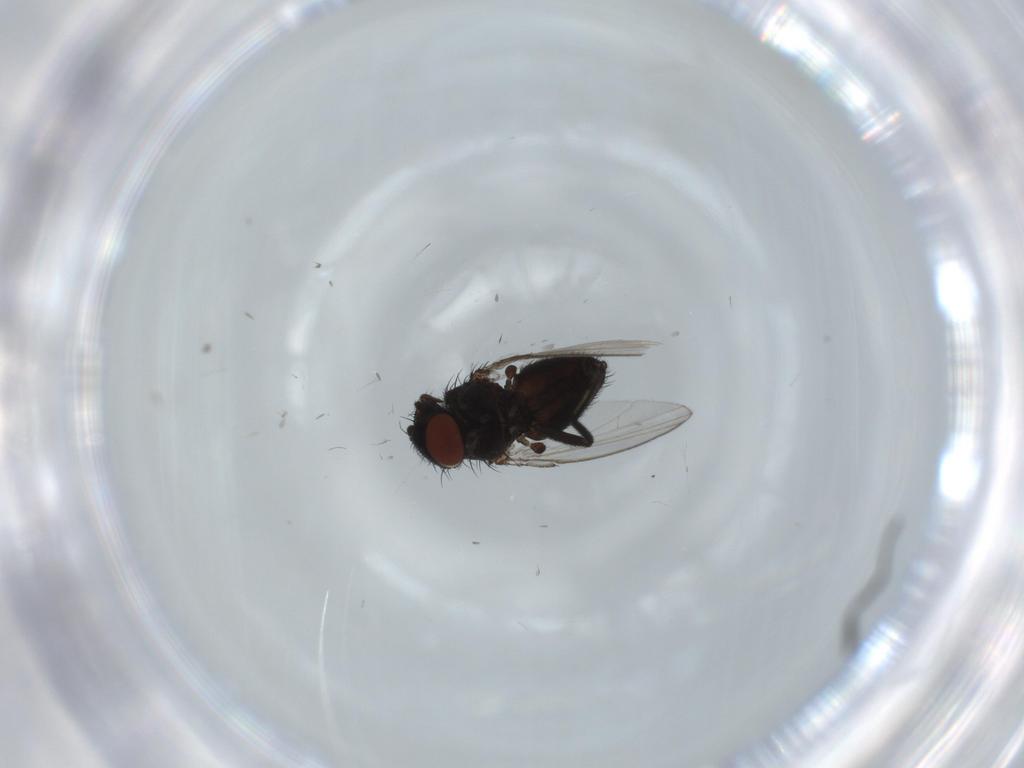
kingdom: Animalia
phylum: Arthropoda
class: Insecta
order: Diptera
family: Milichiidae
